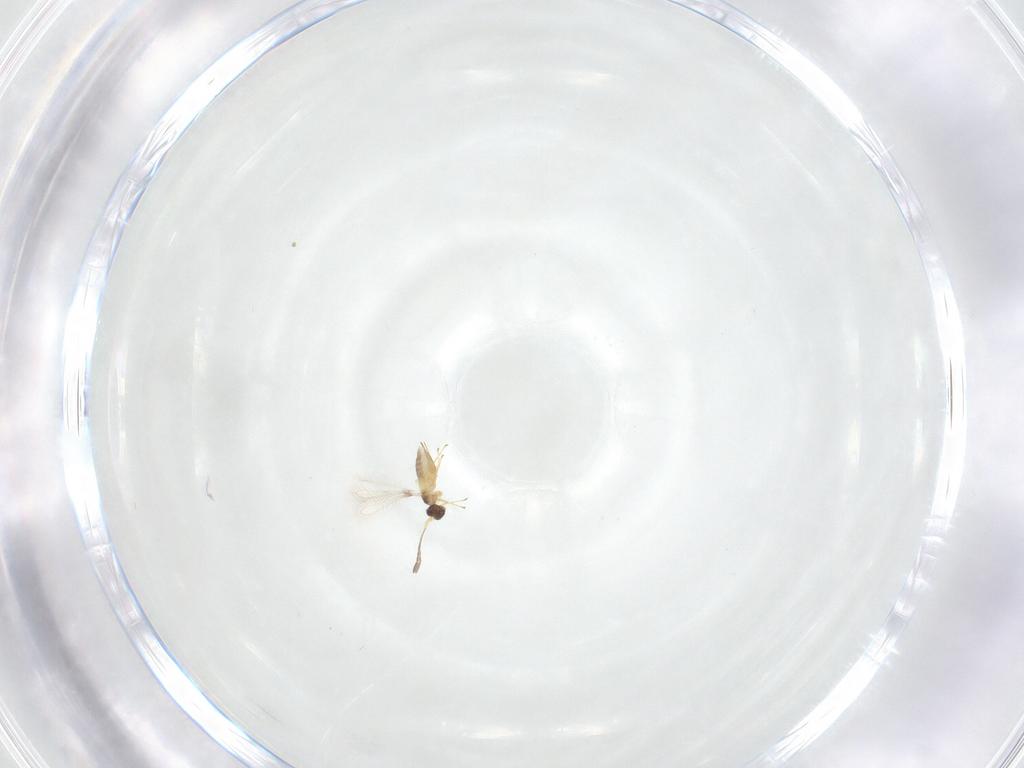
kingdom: Animalia
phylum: Arthropoda
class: Insecta
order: Hymenoptera
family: Mymaridae
